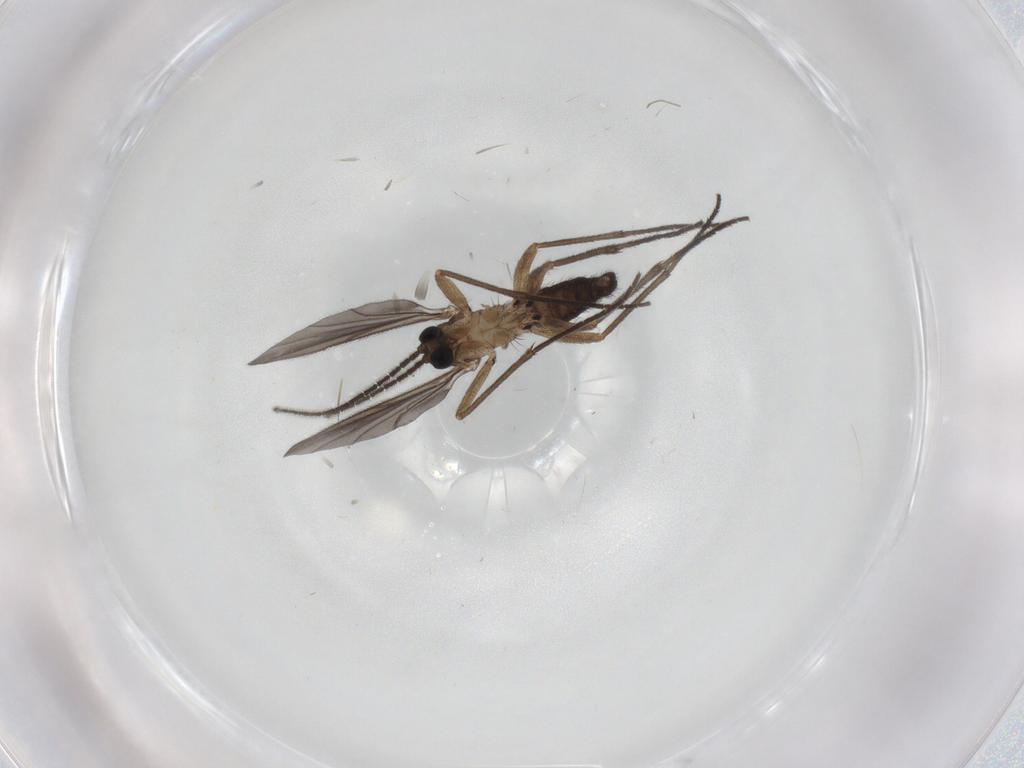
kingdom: Animalia
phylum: Arthropoda
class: Insecta
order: Diptera
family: Sciaridae
